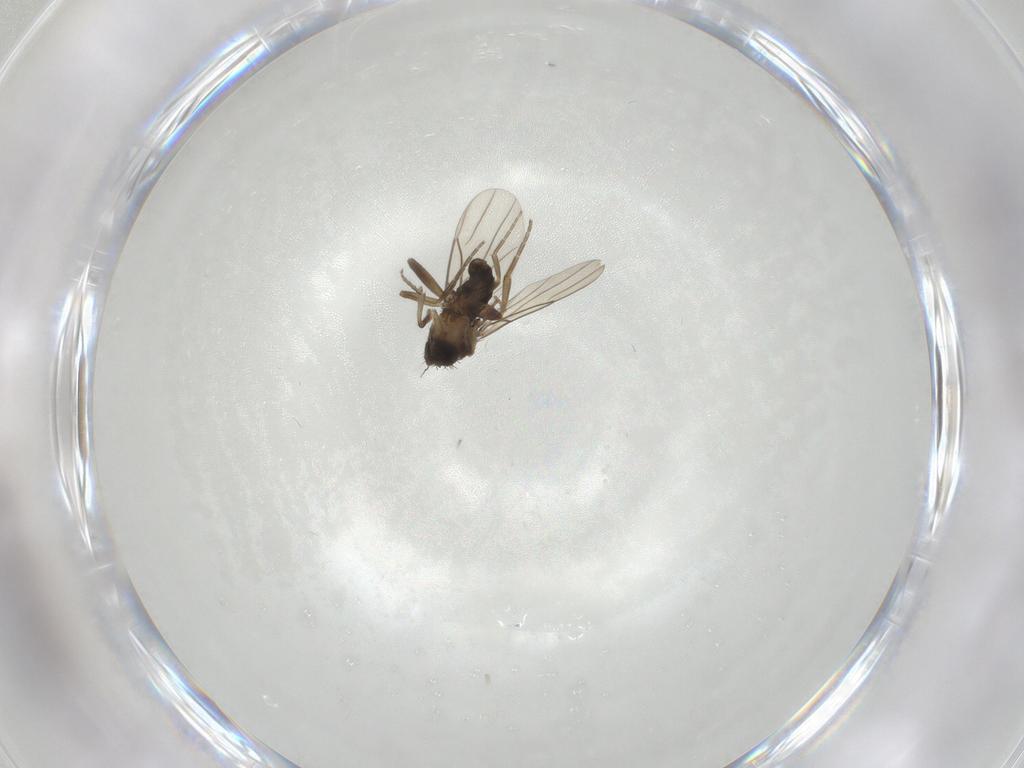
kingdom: Animalia
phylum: Arthropoda
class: Insecta
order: Diptera
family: Phoridae
